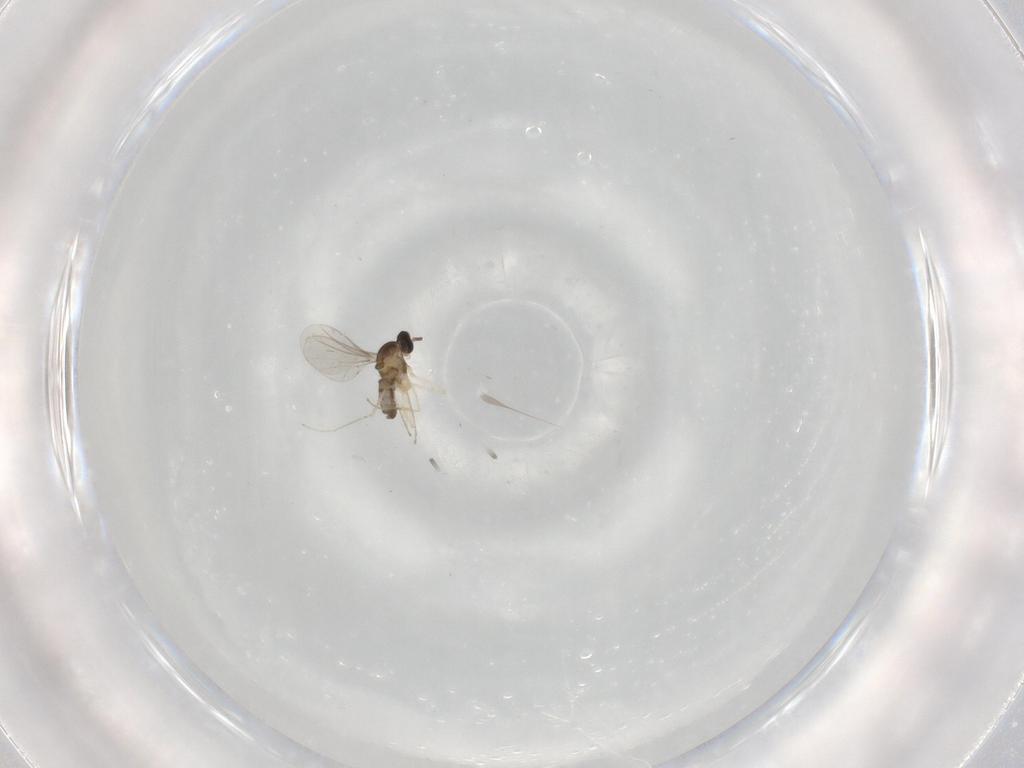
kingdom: Animalia
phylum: Arthropoda
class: Insecta
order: Diptera
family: Cecidomyiidae
